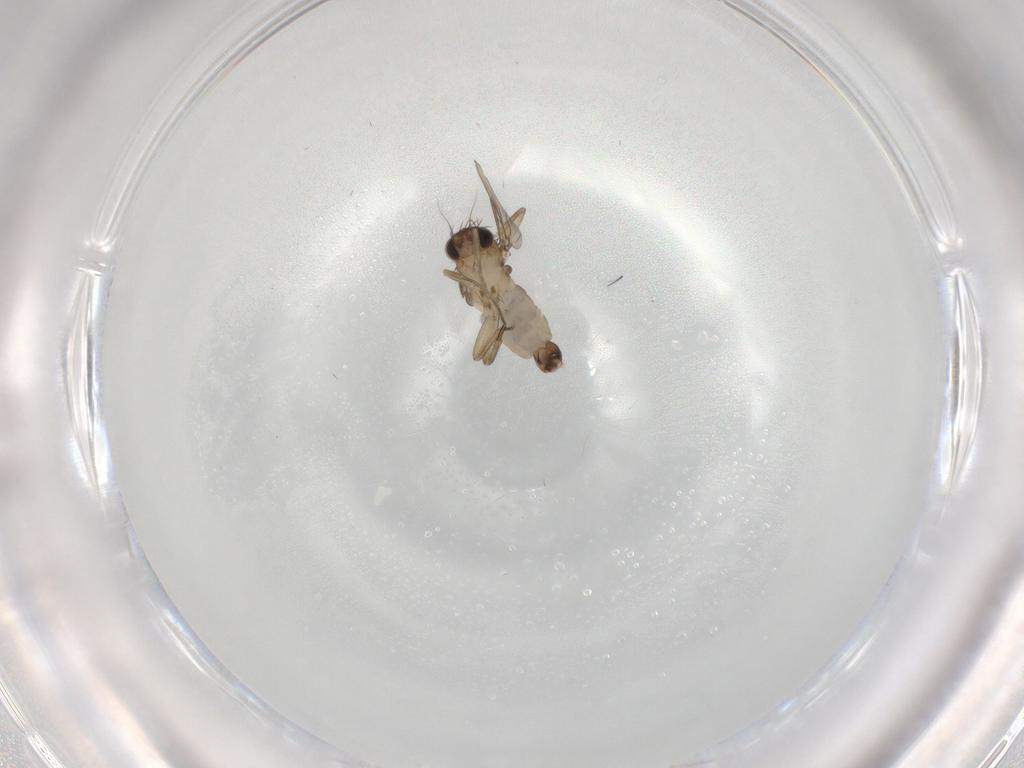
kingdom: Animalia
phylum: Arthropoda
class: Insecta
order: Diptera
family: Phoridae
